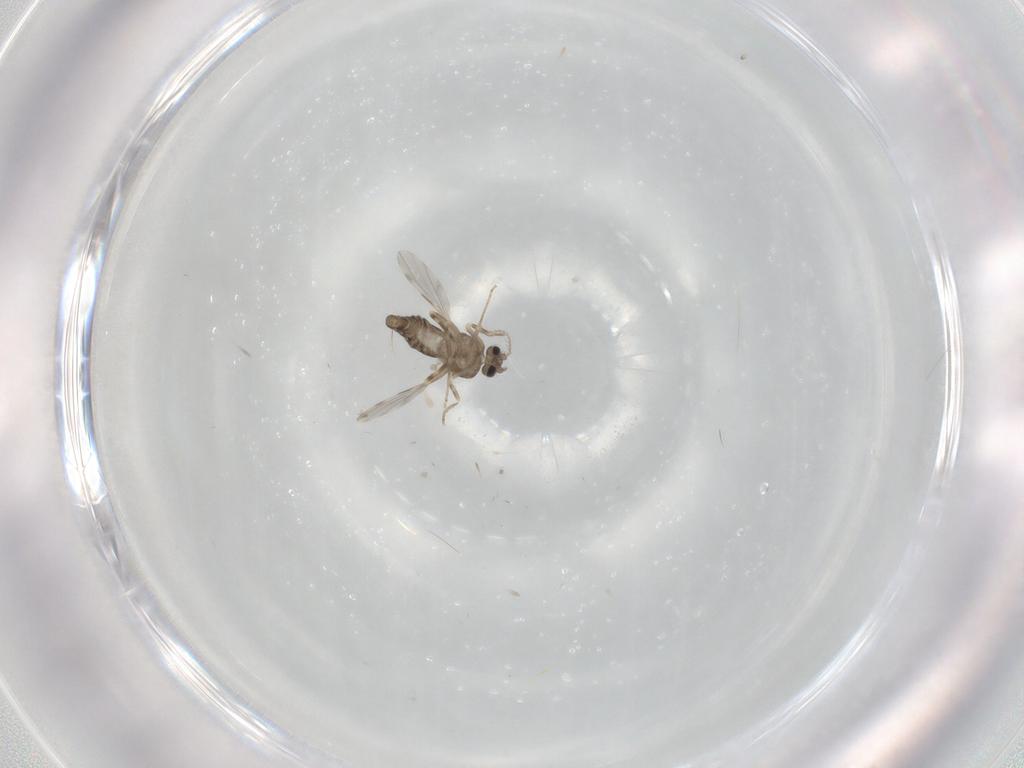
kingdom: Animalia
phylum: Arthropoda
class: Insecta
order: Diptera
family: Ceratopogonidae
